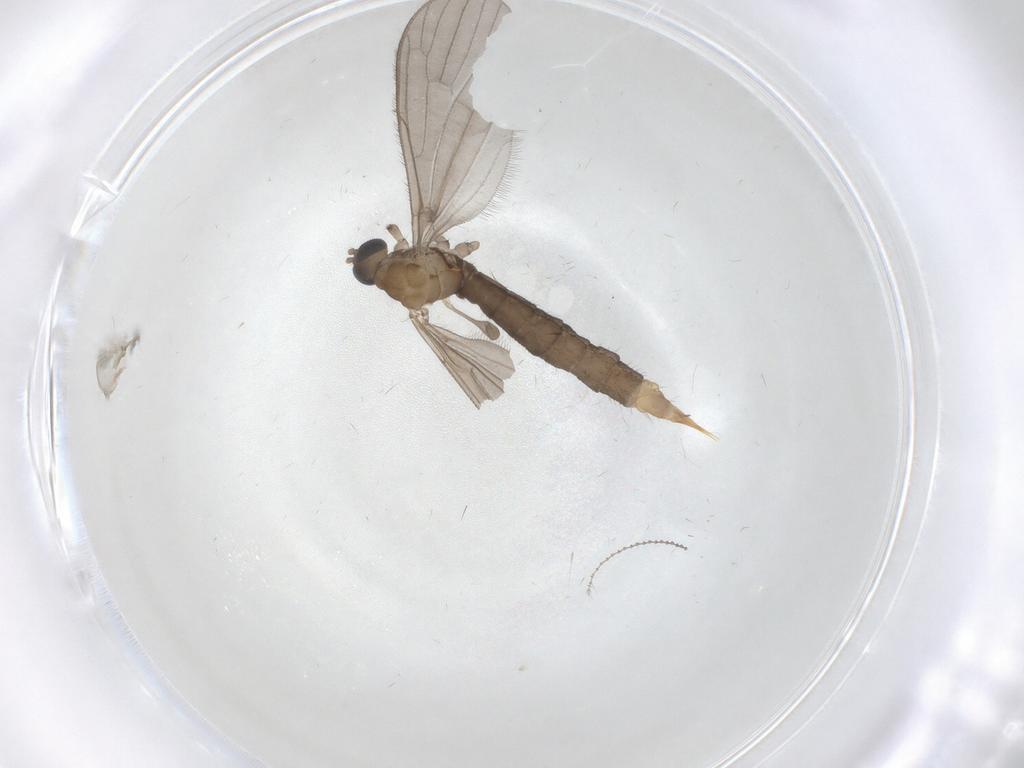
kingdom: Animalia
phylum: Arthropoda
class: Insecta
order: Diptera
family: Limoniidae
